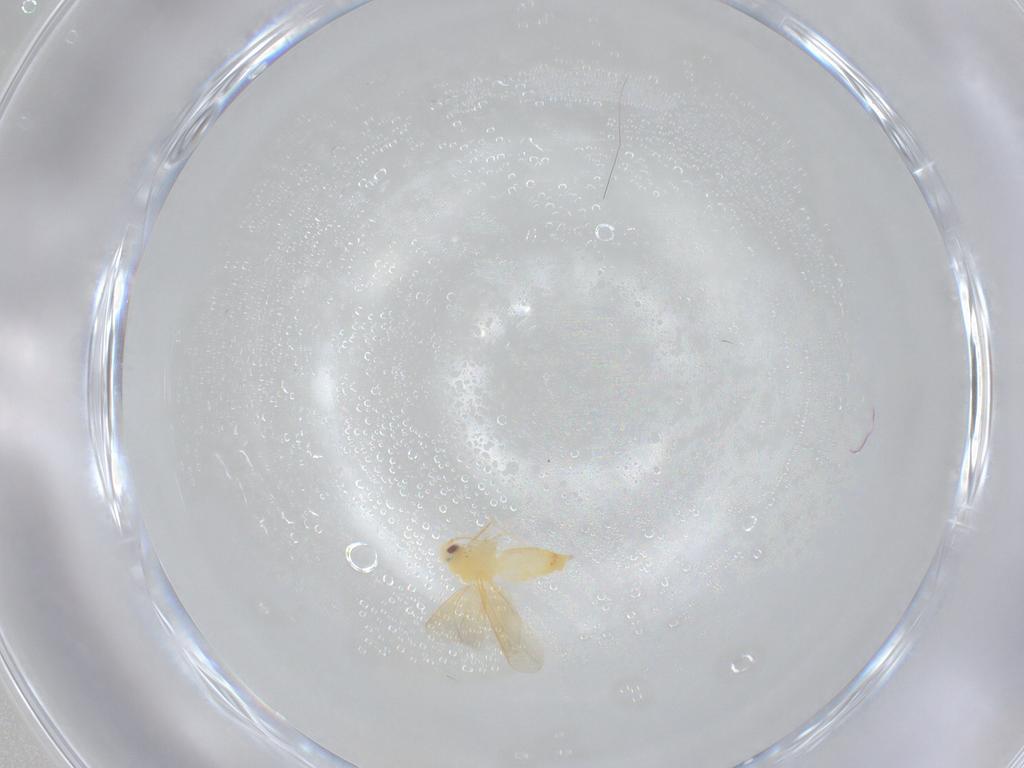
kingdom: Animalia
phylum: Arthropoda
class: Insecta
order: Hemiptera
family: Aleyrodidae
